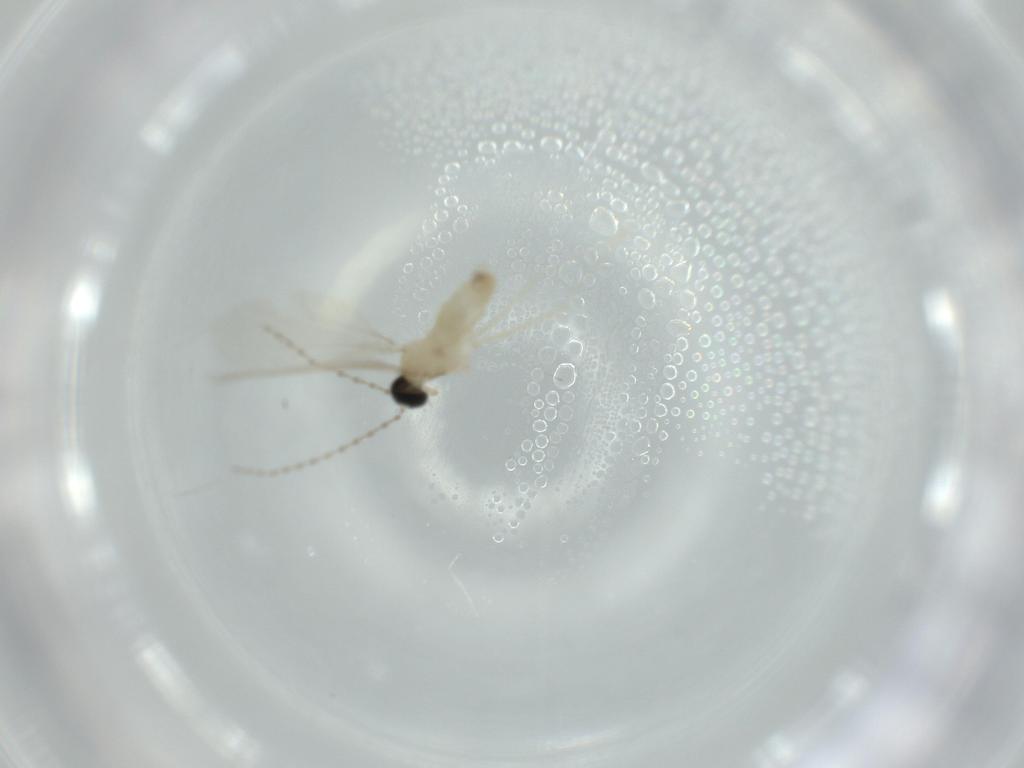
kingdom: Animalia
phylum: Arthropoda
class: Insecta
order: Diptera
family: Cecidomyiidae
